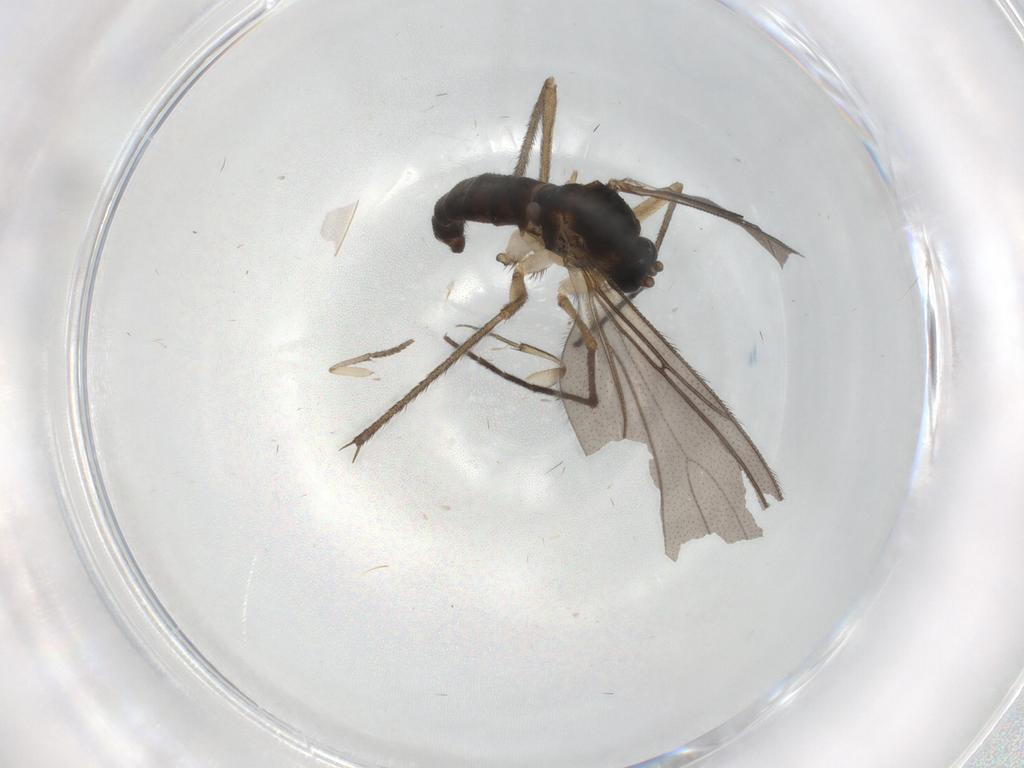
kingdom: Animalia
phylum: Arthropoda
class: Insecta
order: Diptera
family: Sciaridae
